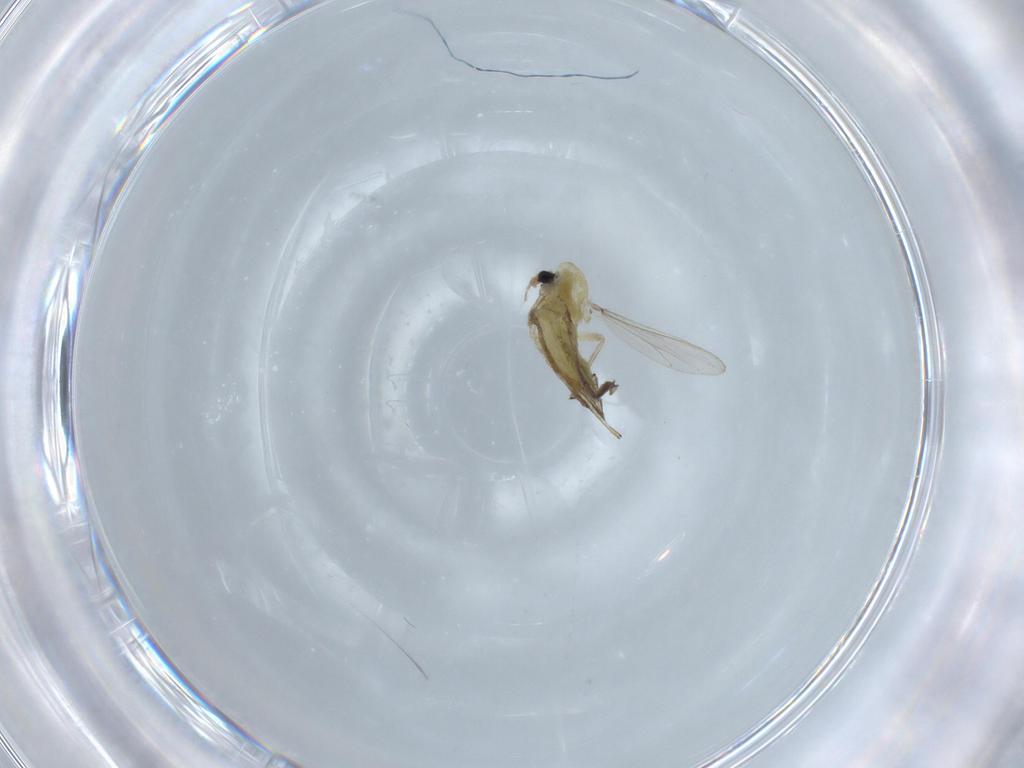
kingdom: Animalia
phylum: Arthropoda
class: Insecta
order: Diptera
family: Chironomidae
